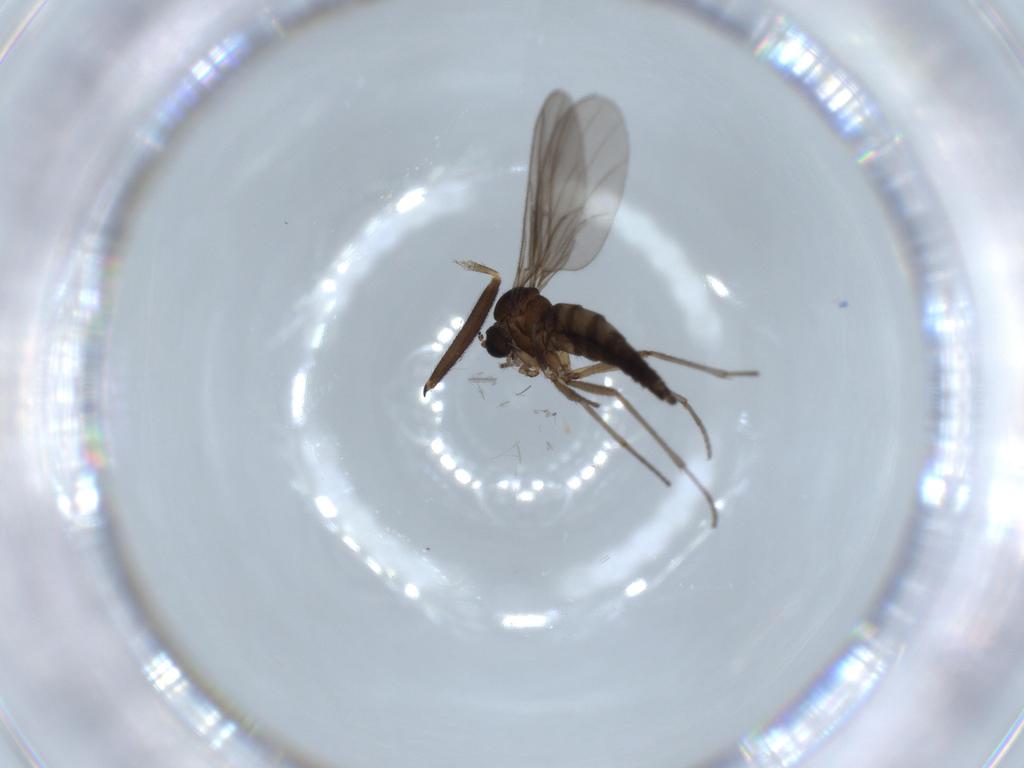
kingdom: Animalia
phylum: Arthropoda
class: Insecta
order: Diptera
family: Sciaridae
